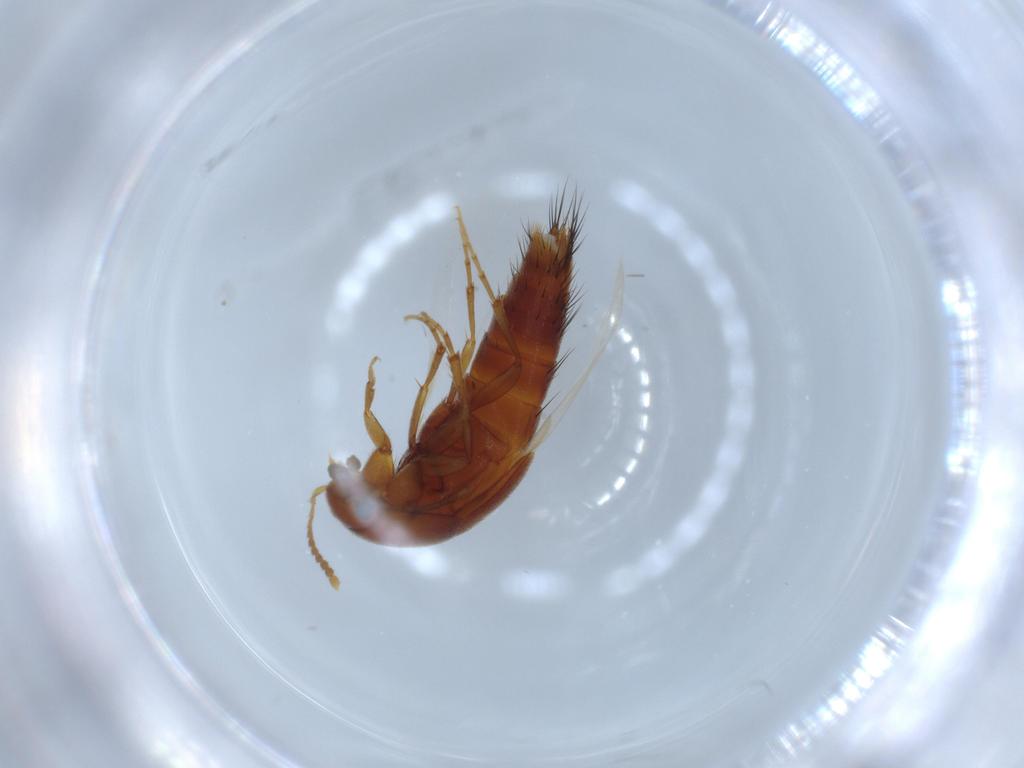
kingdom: Animalia
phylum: Arthropoda
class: Insecta
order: Coleoptera
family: Staphylinidae
